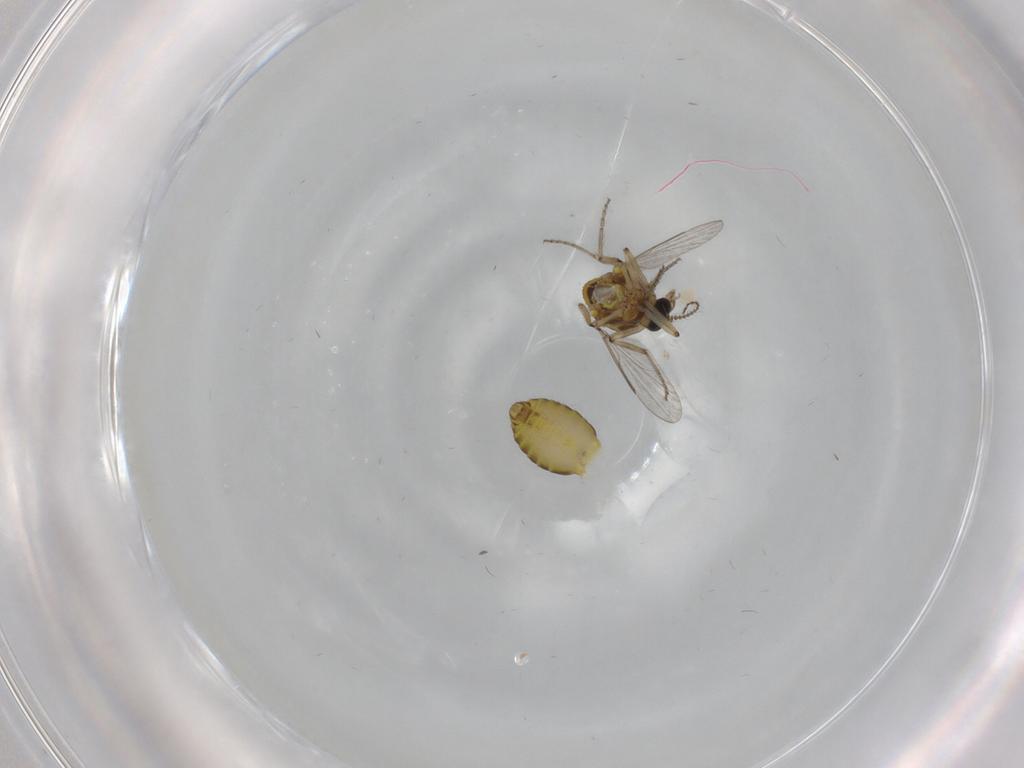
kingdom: Animalia
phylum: Arthropoda
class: Insecta
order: Diptera
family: Ceratopogonidae
